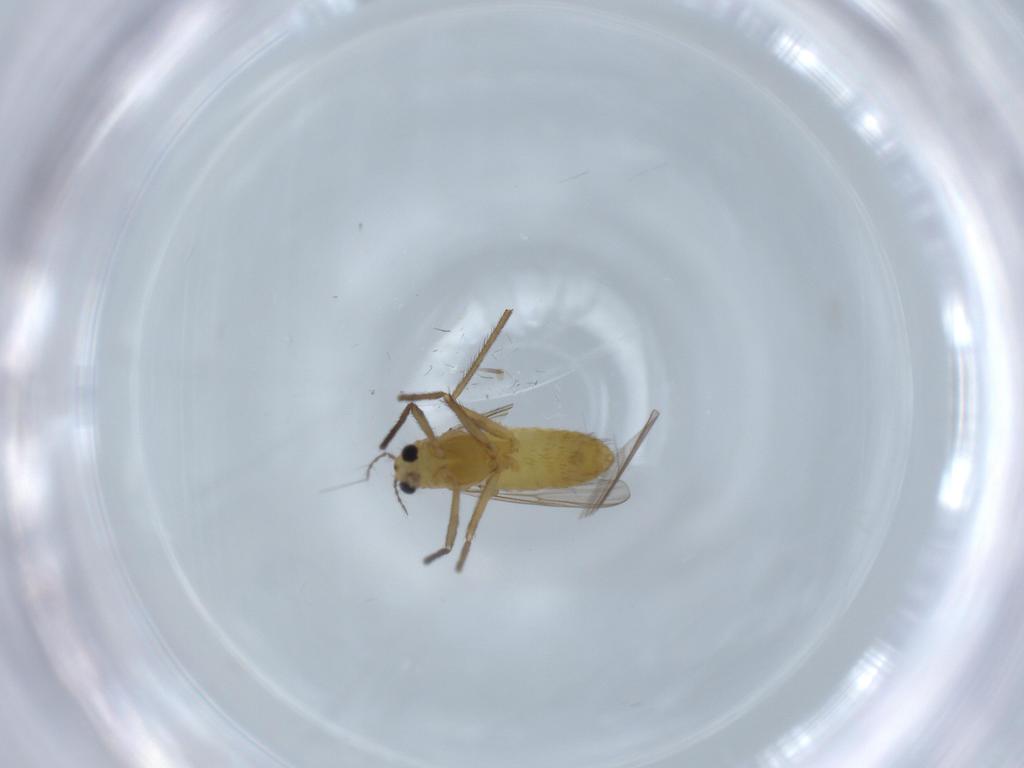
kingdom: Animalia
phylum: Arthropoda
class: Insecta
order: Diptera
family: Chironomidae
